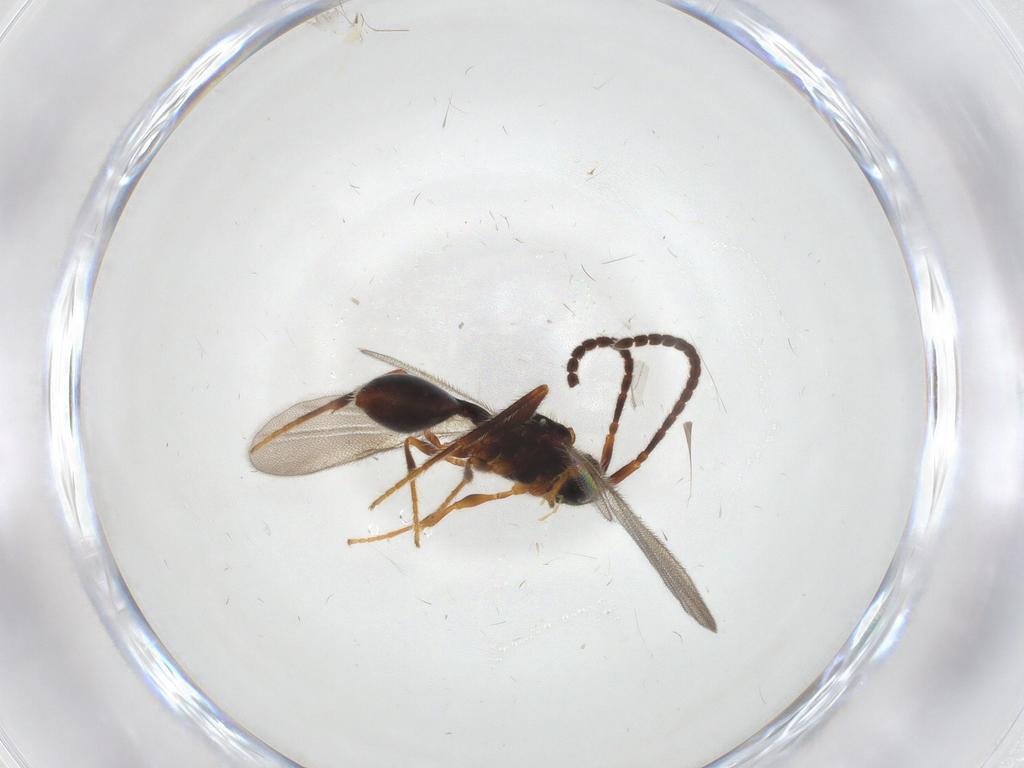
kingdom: Animalia
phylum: Arthropoda
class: Insecta
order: Hymenoptera
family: Diapriidae
